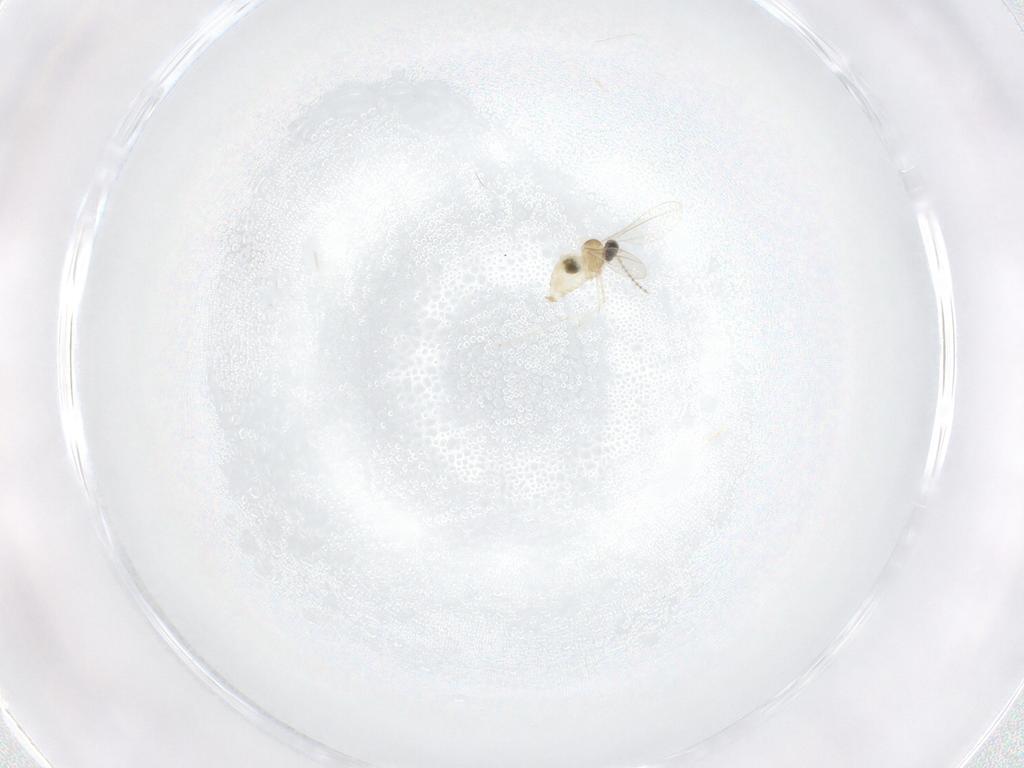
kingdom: Animalia
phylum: Arthropoda
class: Insecta
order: Diptera
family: Cecidomyiidae
